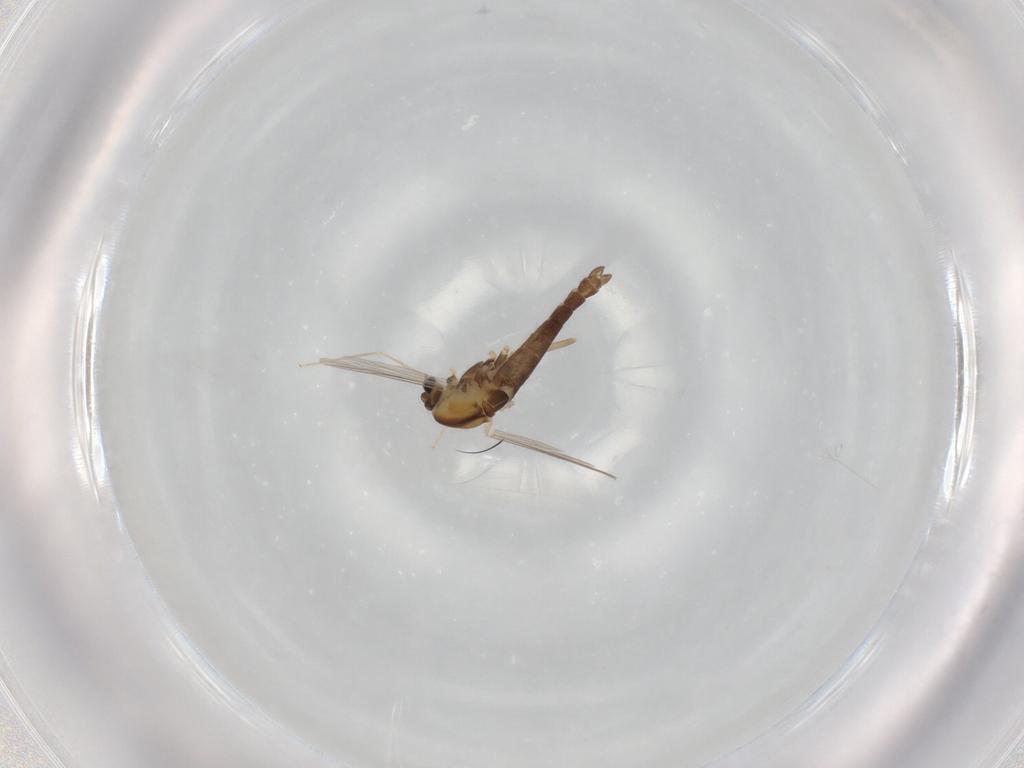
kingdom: Animalia
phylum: Arthropoda
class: Insecta
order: Diptera
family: Chironomidae
